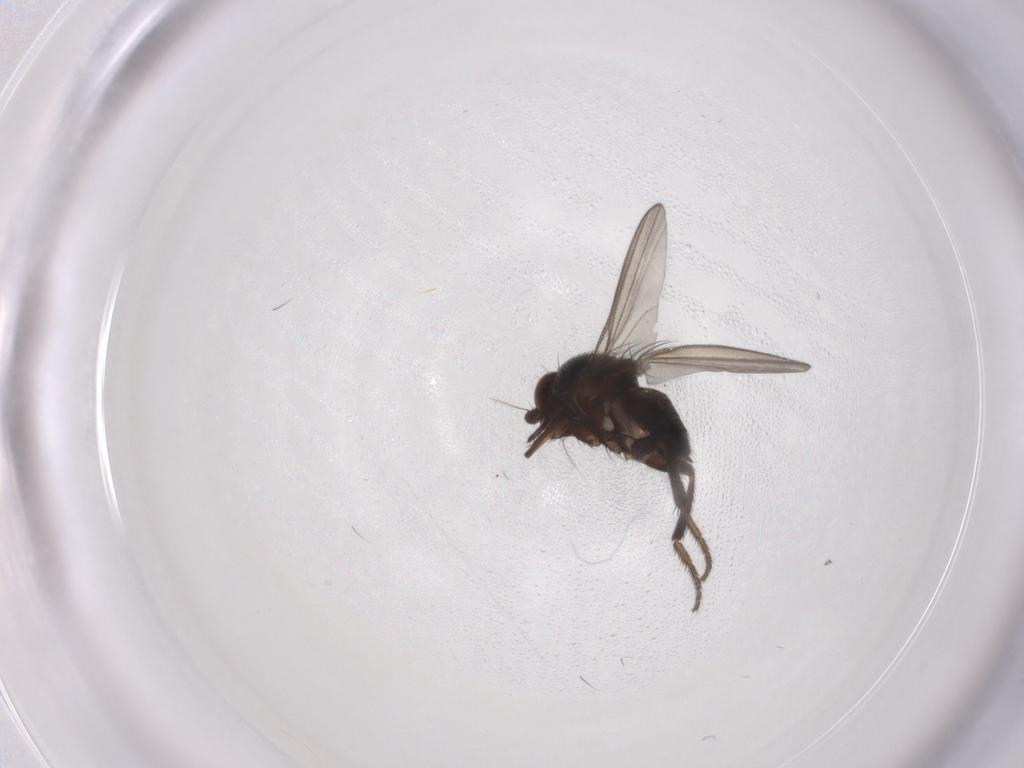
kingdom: Animalia
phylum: Arthropoda
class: Insecta
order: Diptera
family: Milichiidae
